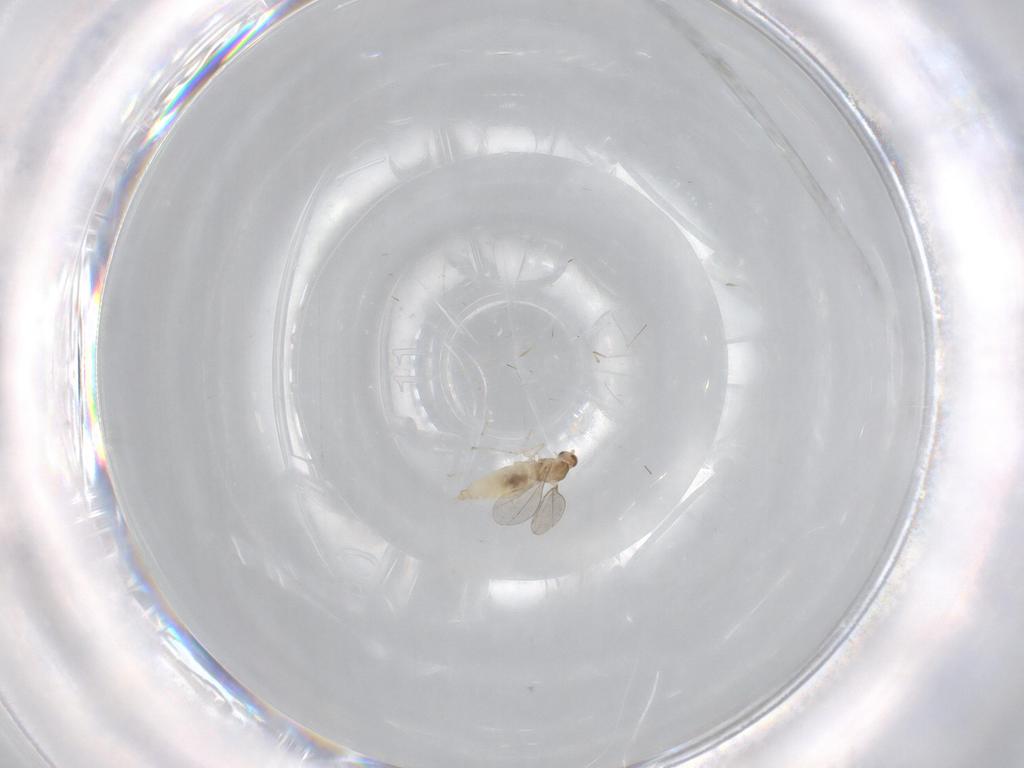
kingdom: Animalia
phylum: Arthropoda
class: Insecta
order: Diptera
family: Cecidomyiidae
